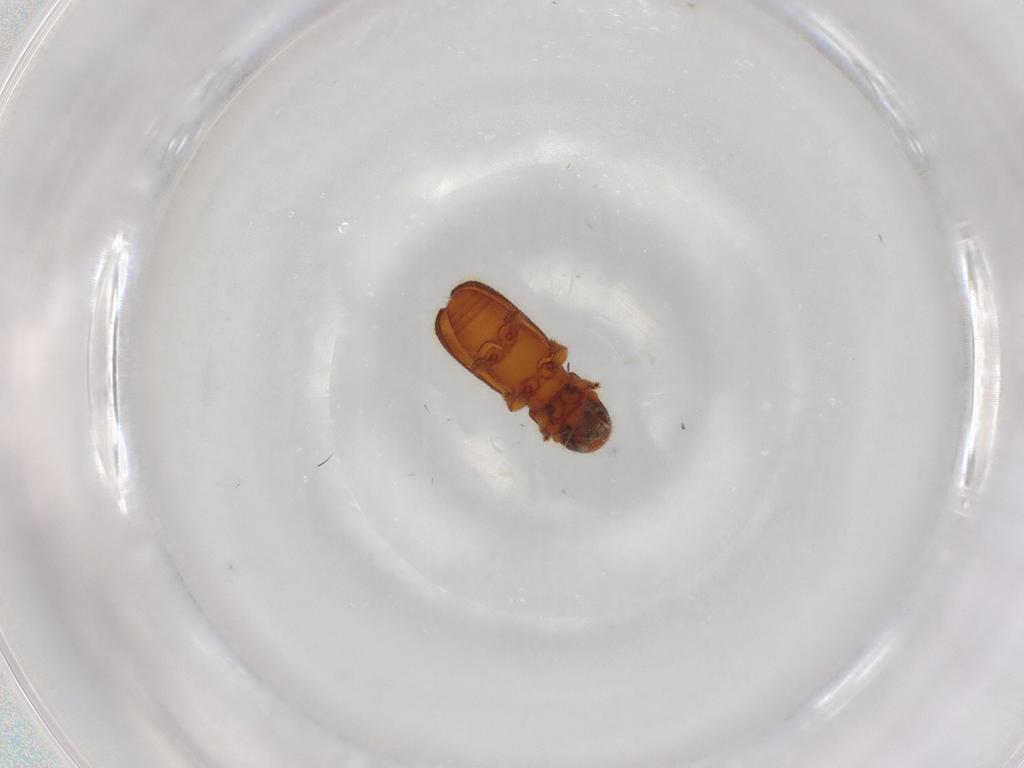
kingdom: Animalia
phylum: Arthropoda
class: Insecta
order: Coleoptera
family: Curculionidae
